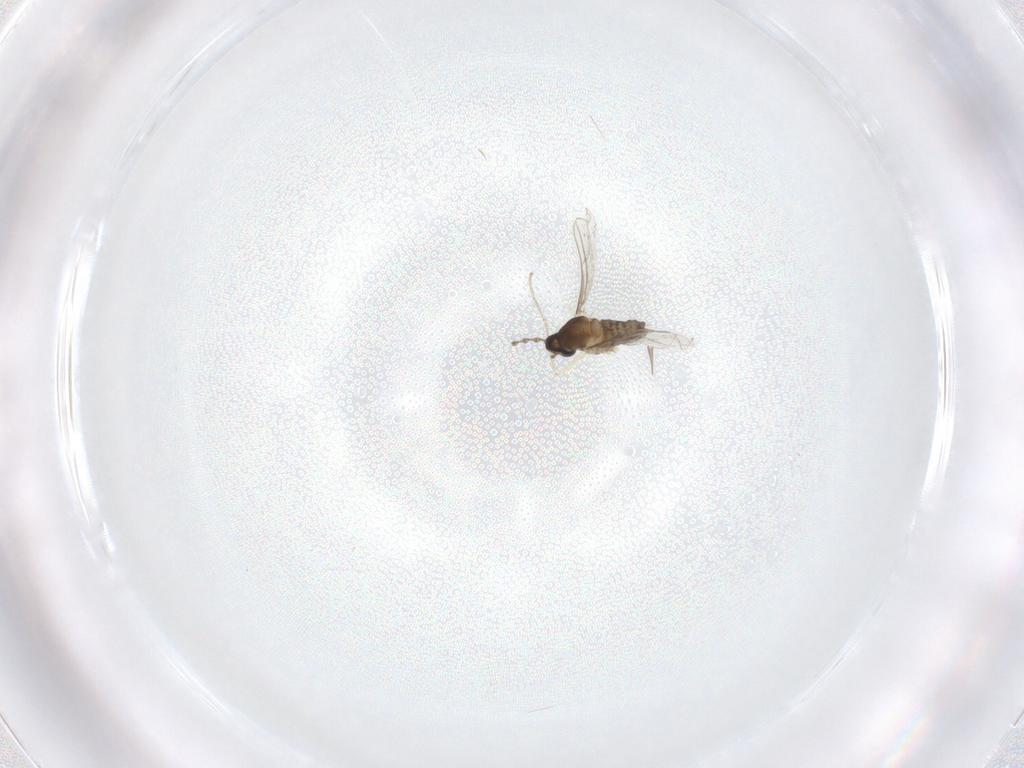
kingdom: Animalia
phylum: Arthropoda
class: Insecta
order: Diptera
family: Cecidomyiidae
